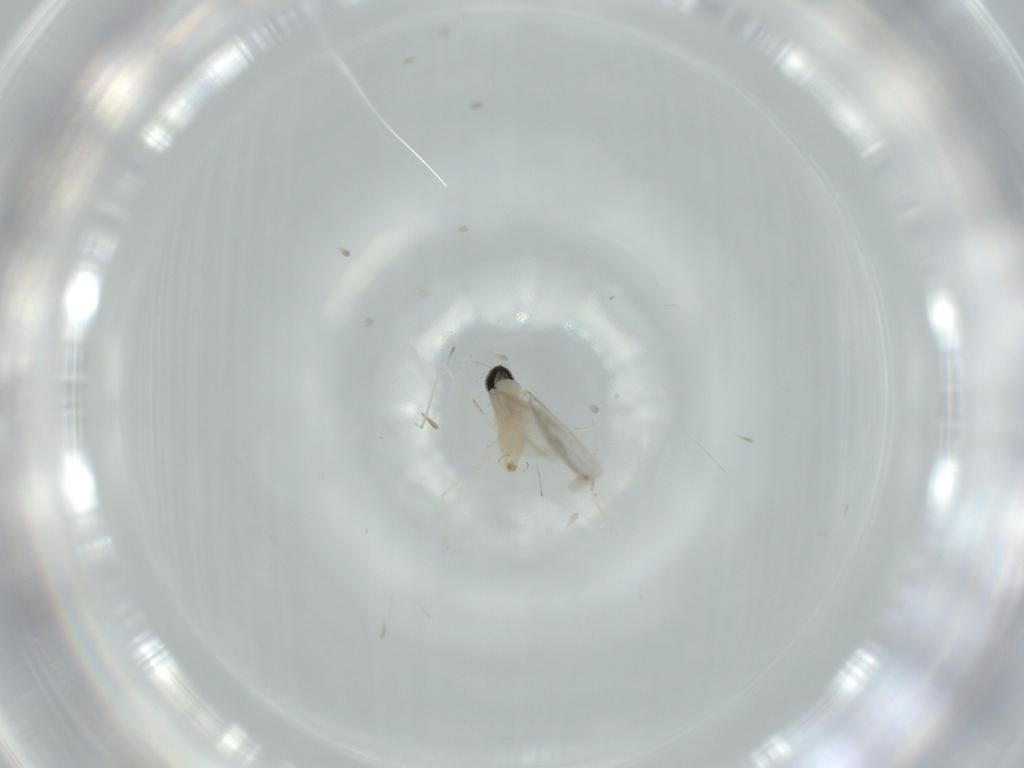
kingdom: Animalia
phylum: Arthropoda
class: Insecta
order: Diptera
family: Cecidomyiidae
